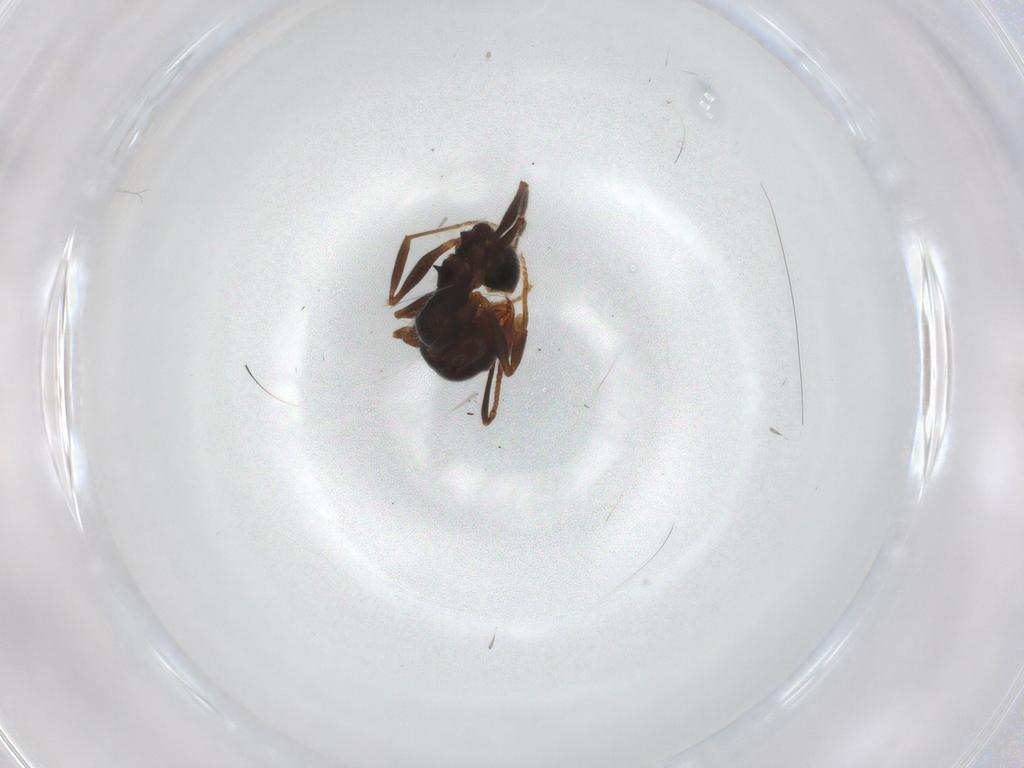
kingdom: Animalia
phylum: Arthropoda
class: Insecta
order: Hymenoptera
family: Formicidae
